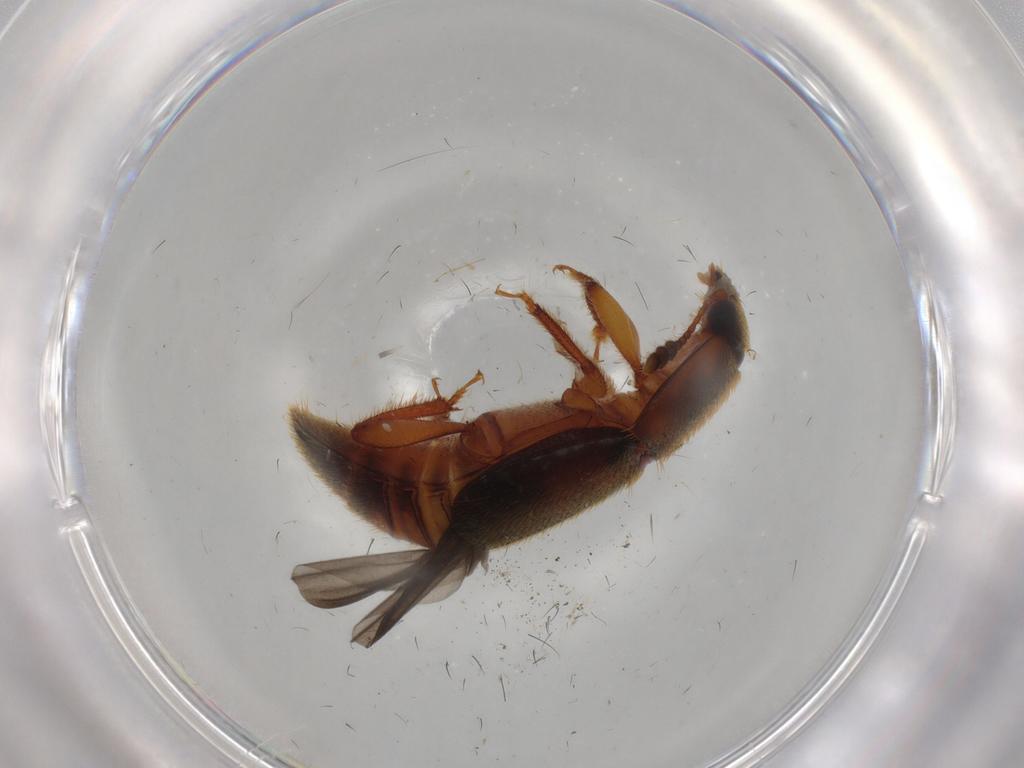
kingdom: Animalia
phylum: Arthropoda
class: Insecta
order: Coleoptera
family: Nitidulidae
